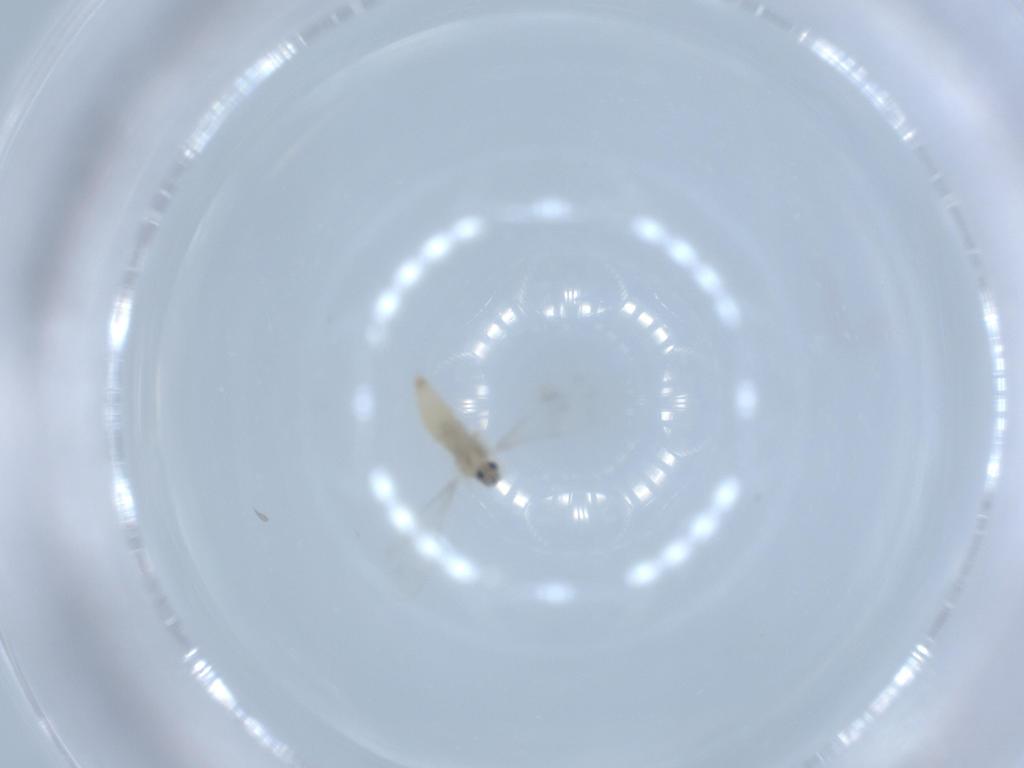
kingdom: Animalia
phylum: Arthropoda
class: Insecta
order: Diptera
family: Cecidomyiidae
